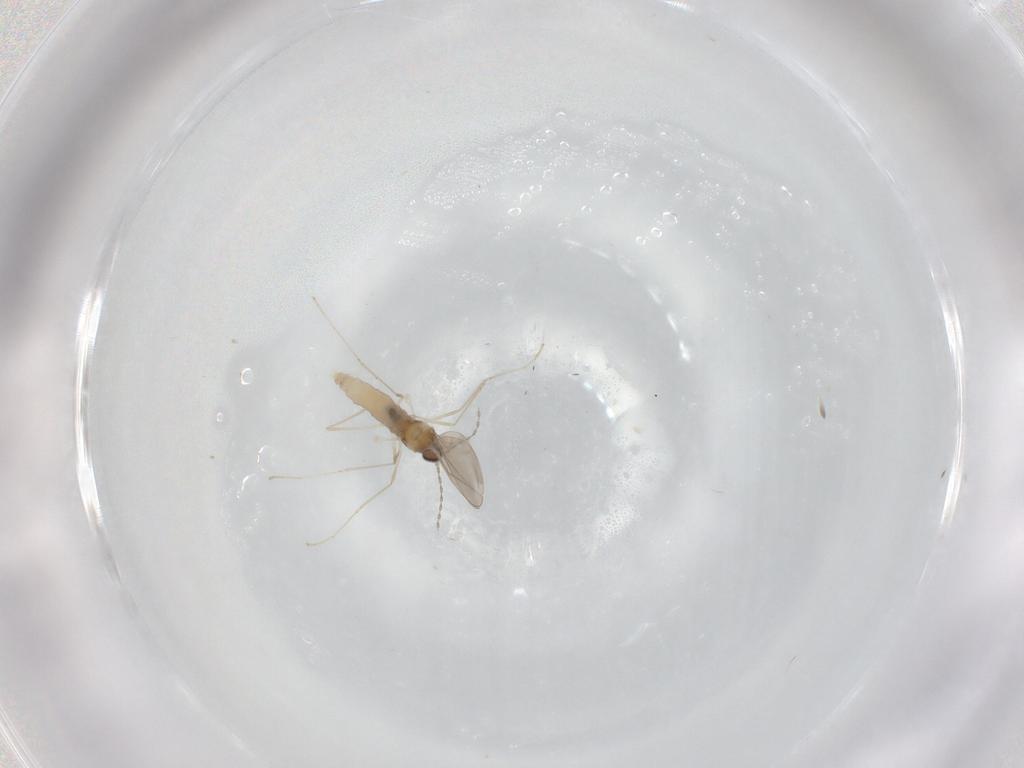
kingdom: Animalia
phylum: Arthropoda
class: Insecta
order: Diptera
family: Cecidomyiidae
